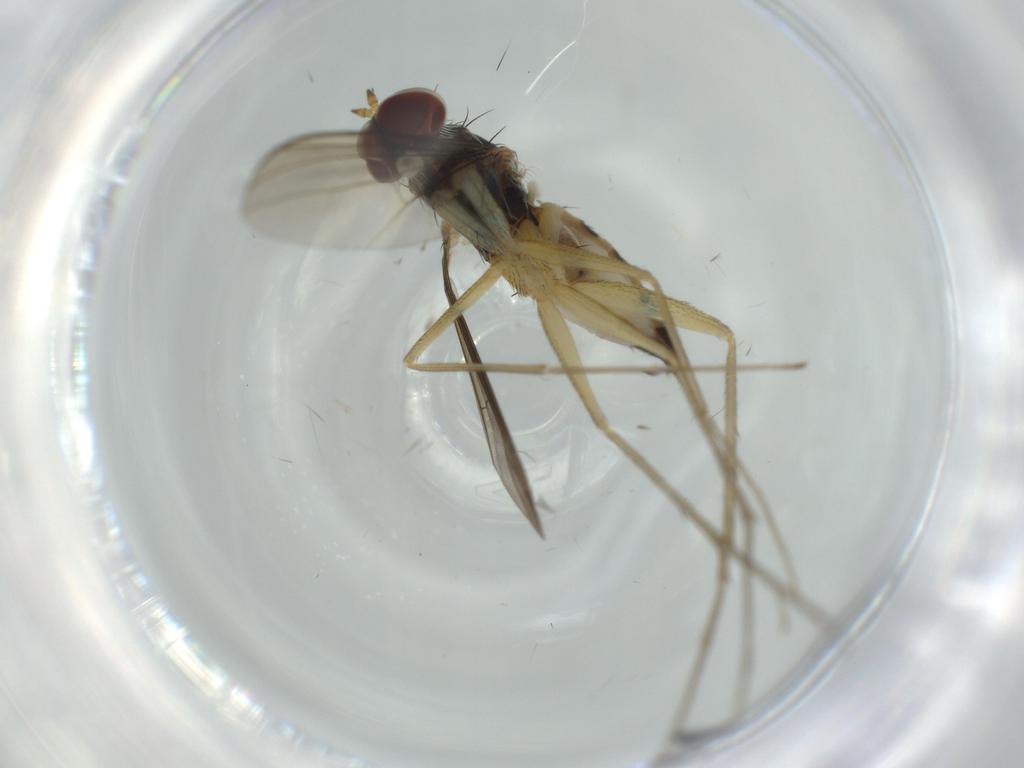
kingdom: Animalia
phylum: Arthropoda
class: Insecta
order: Diptera
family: Dolichopodidae
